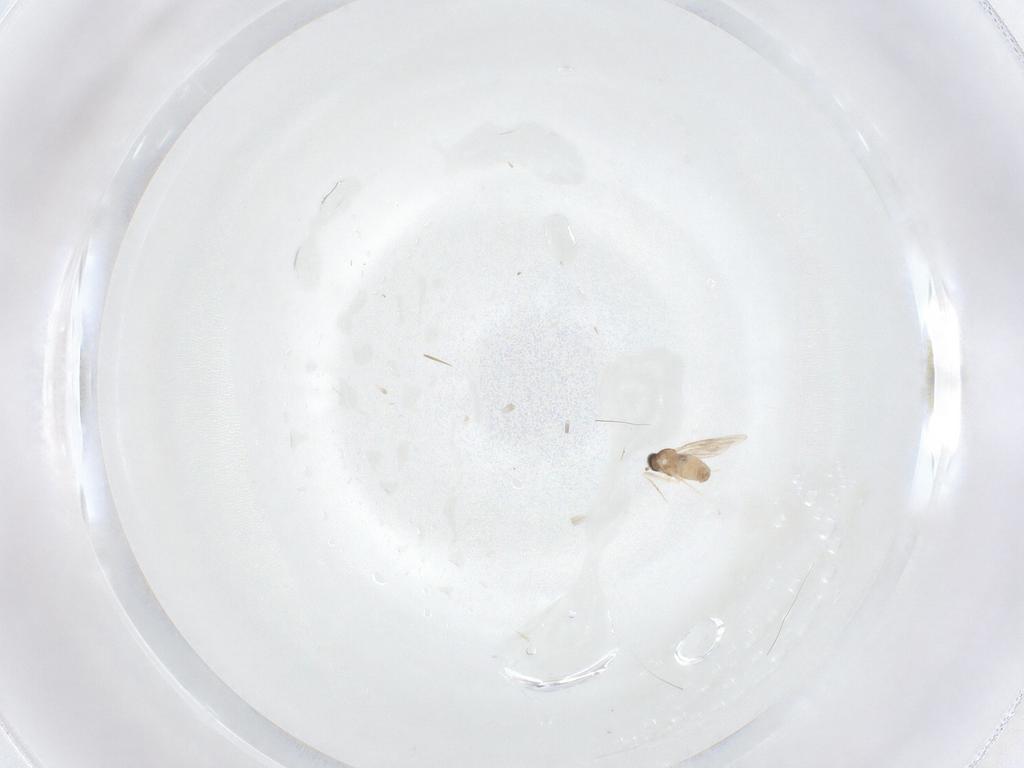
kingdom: Animalia
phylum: Arthropoda
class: Insecta
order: Diptera
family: Cecidomyiidae
